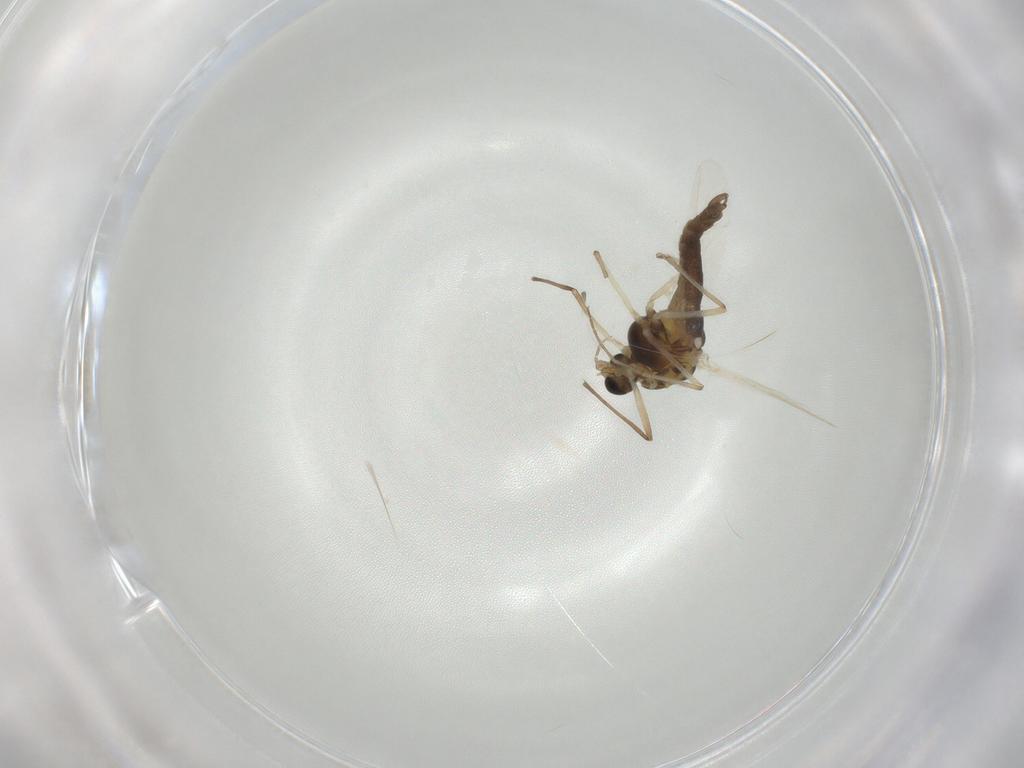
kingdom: Animalia
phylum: Arthropoda
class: Insecta
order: Diptera
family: Chironomidae
